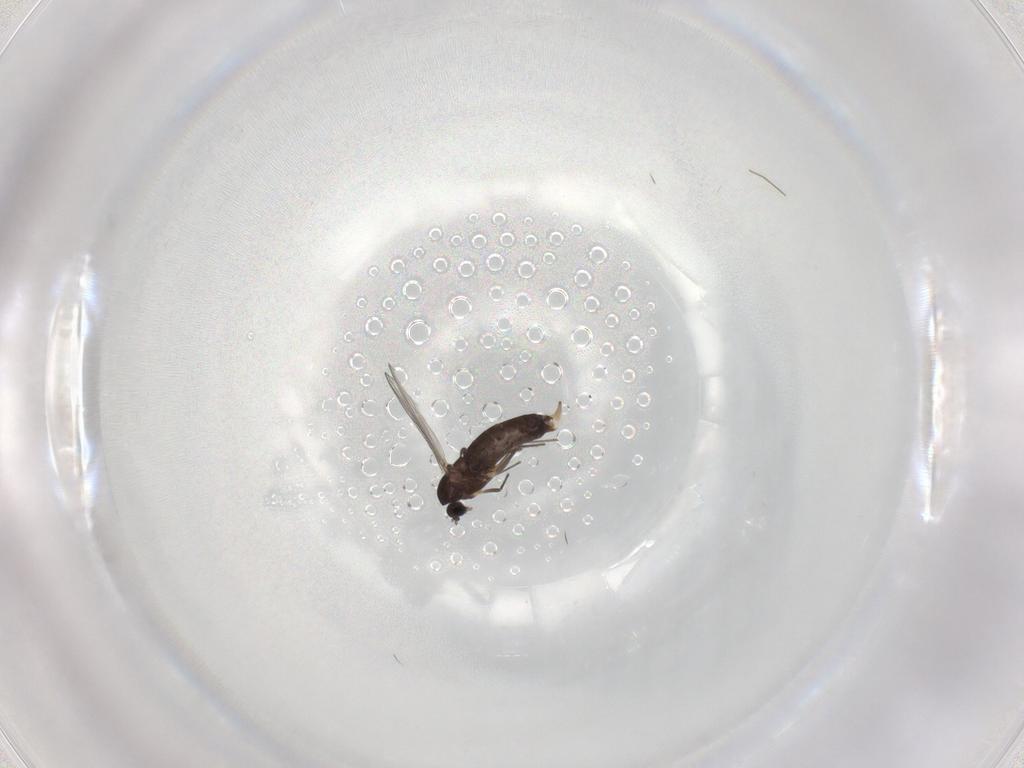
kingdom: Animalia
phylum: Arthropoda
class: Insecta
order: Diptera
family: Chironomidae
